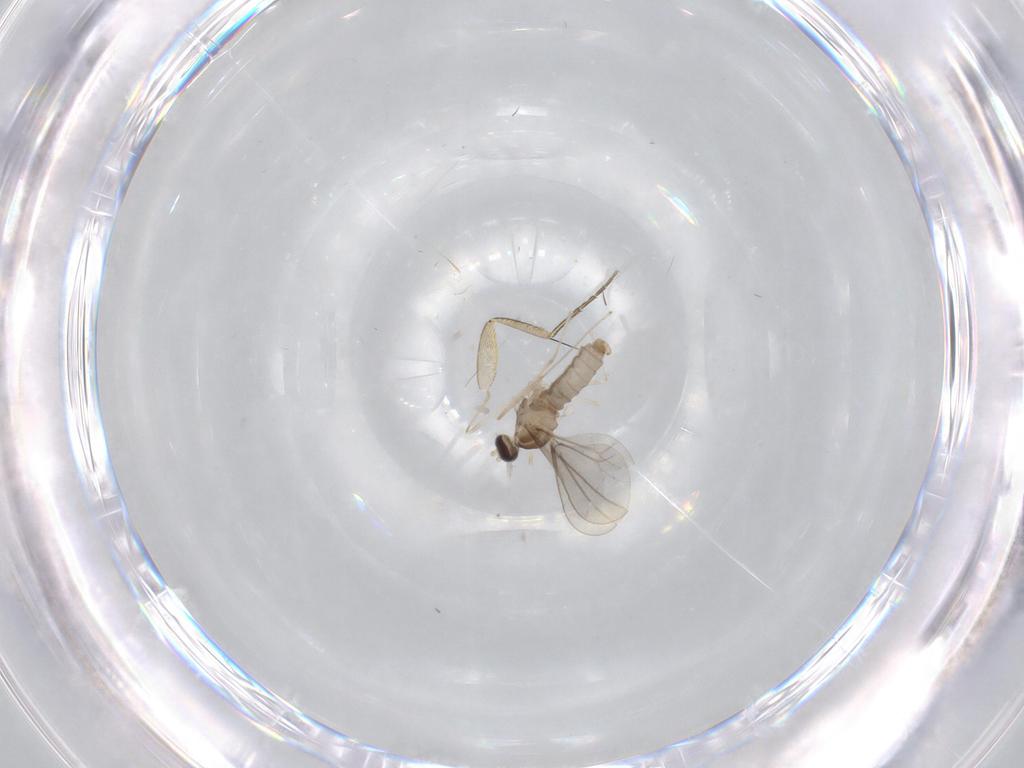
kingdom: Animalia
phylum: Arthropoda
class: Insecta
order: Diptera
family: Cecidomyiidae
